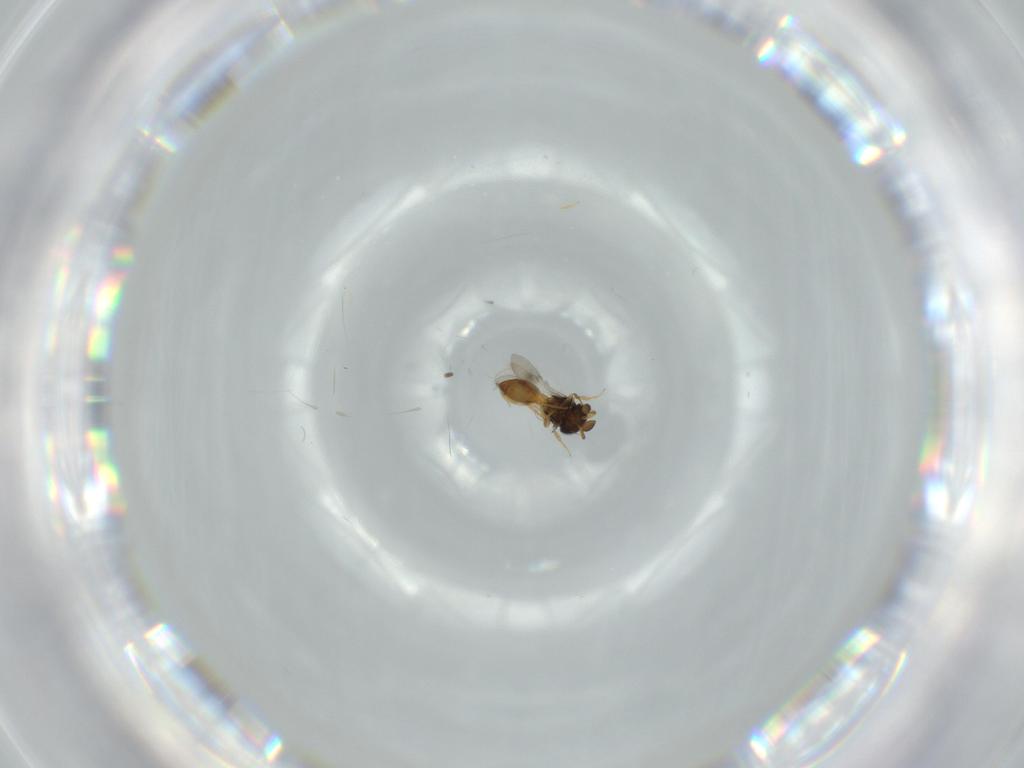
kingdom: Animalia
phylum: Arthropoda
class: Insecta
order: Hymenoptera
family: Scelionidae
